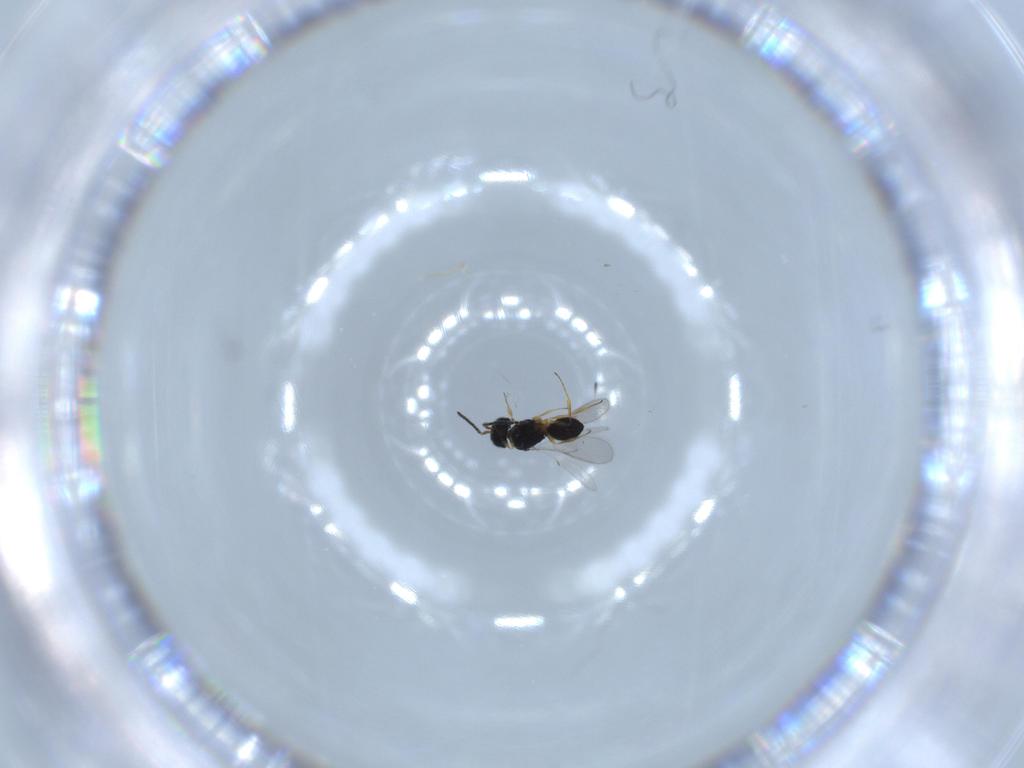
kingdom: Animalia
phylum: Arthropoda
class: Insecta
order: Hymenoptera
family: Scelionidae
